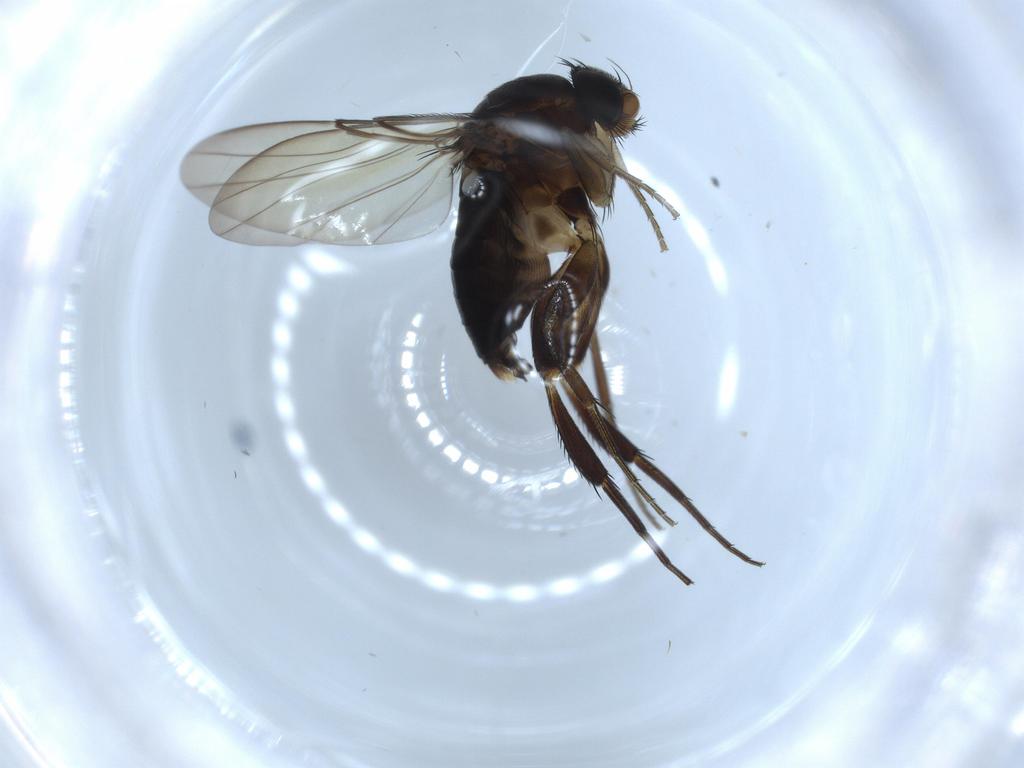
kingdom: Animalia
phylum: Arthropoda
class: Insecta
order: Diptera
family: Phoridae
